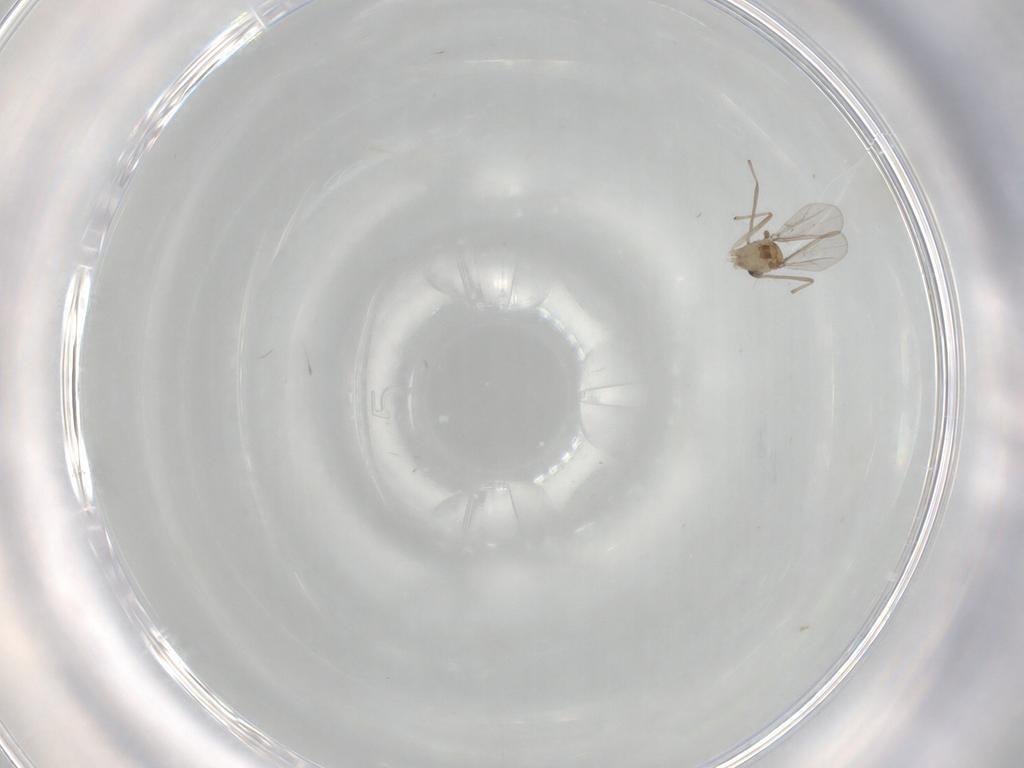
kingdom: Animalia
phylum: Arthropoda
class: Insecta
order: Diptera
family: Chironomidae
